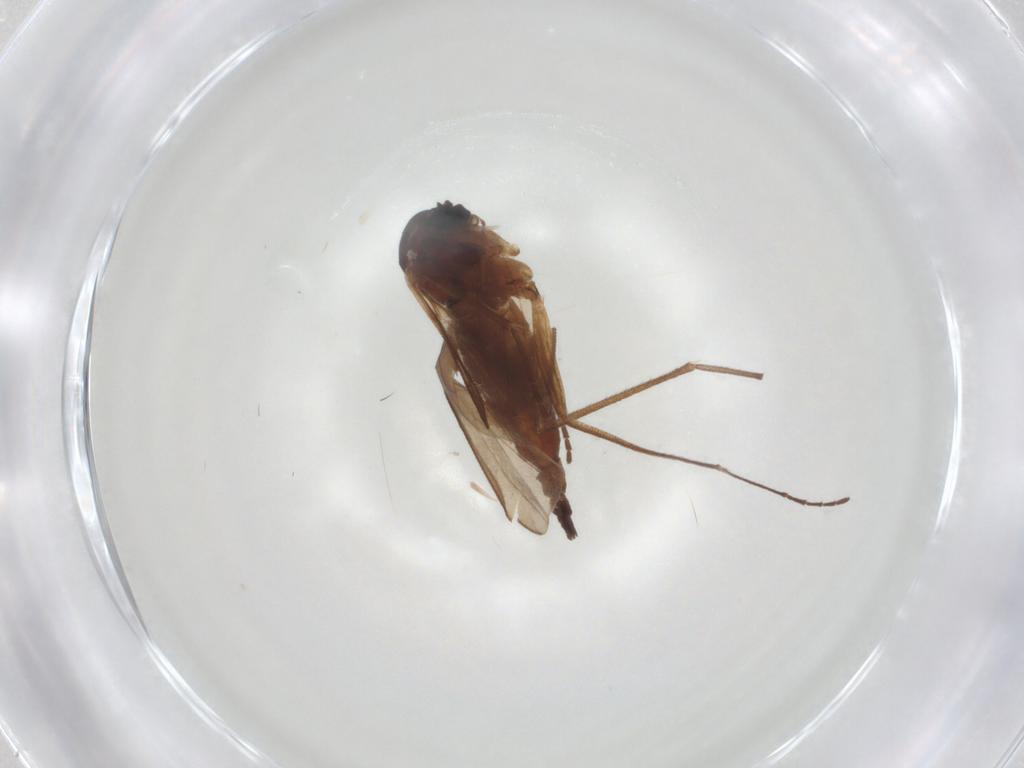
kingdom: Animalia
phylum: Arthropoda
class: Insecta
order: Diptera
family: Sciaridae
